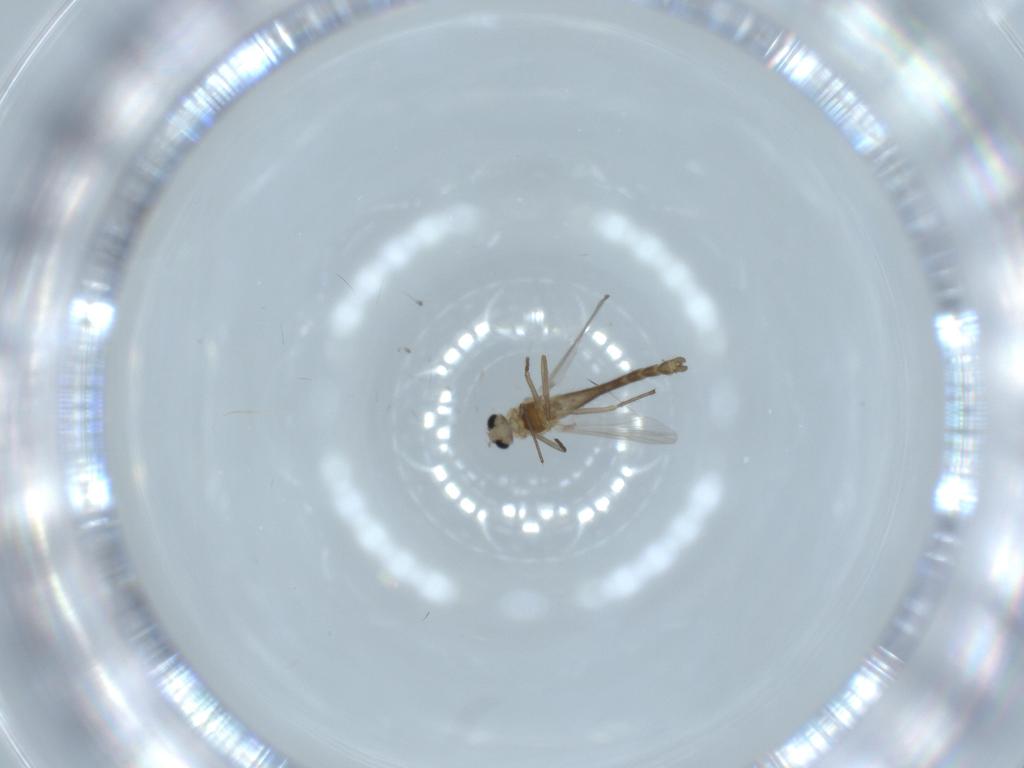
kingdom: Animalia
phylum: Arthropoda
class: Insecta
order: Diptera
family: Chironomidae
